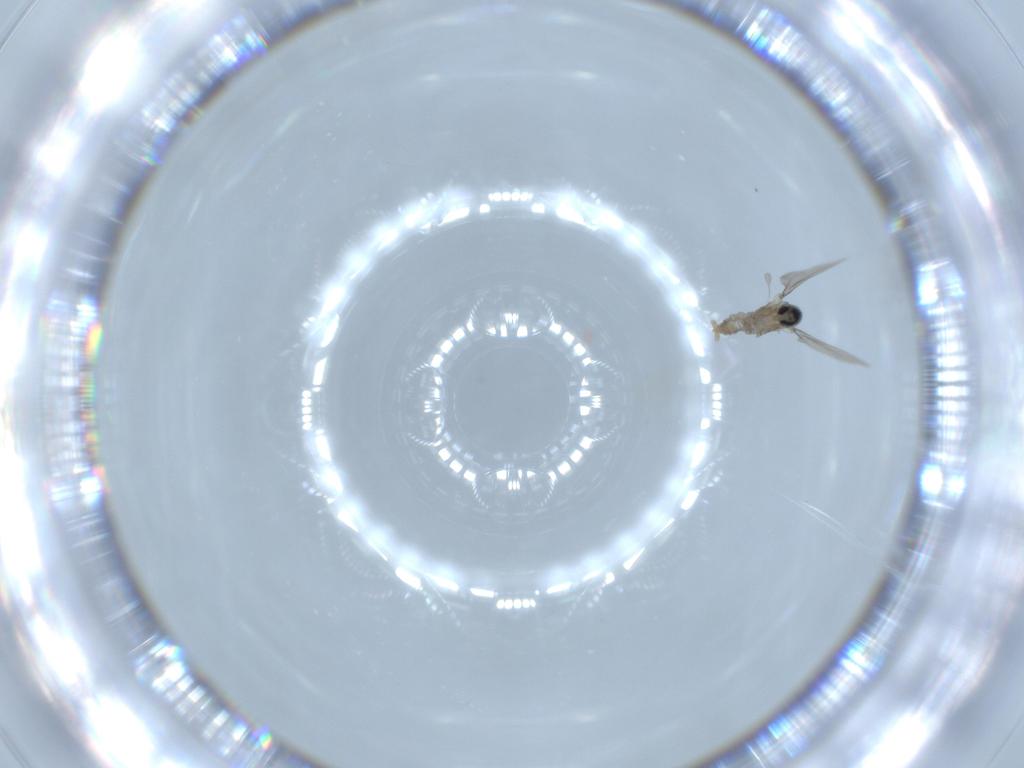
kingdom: Animalia
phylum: Arthropoda
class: Insecta
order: Diptera
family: Cecidomyiidae
